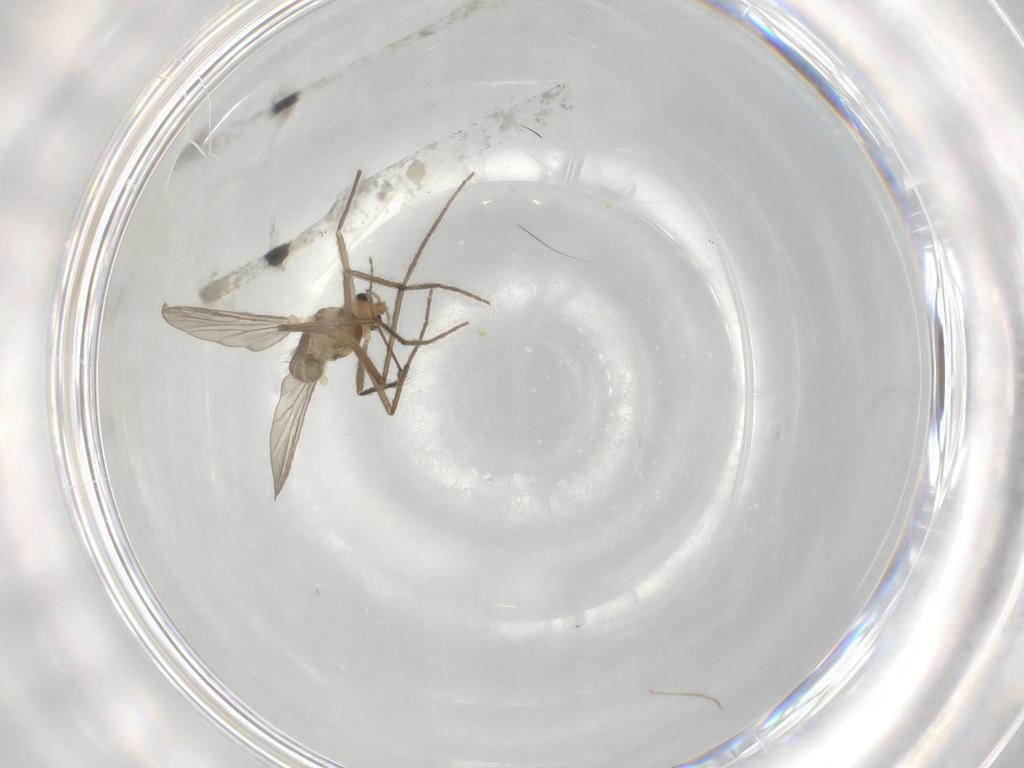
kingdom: Animalia
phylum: Arthropoda
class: Insecta
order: Diptera
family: Chironomidae
